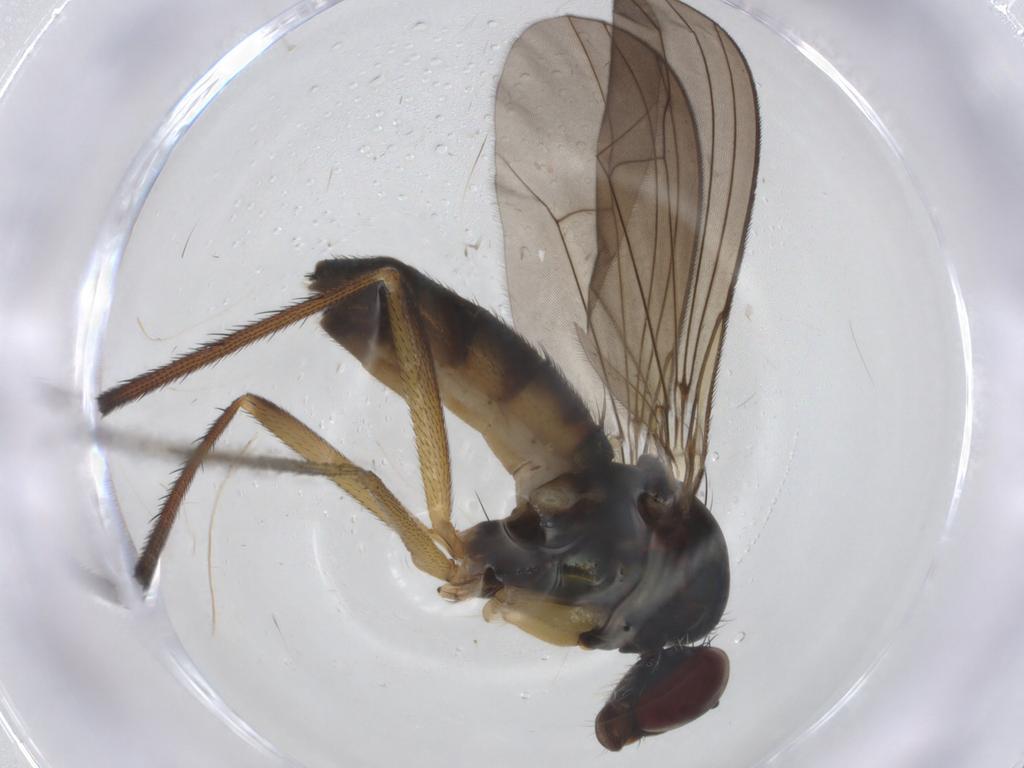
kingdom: Animalia
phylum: Arthropoda
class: Insecta
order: Diptera
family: Dolichopodidae
